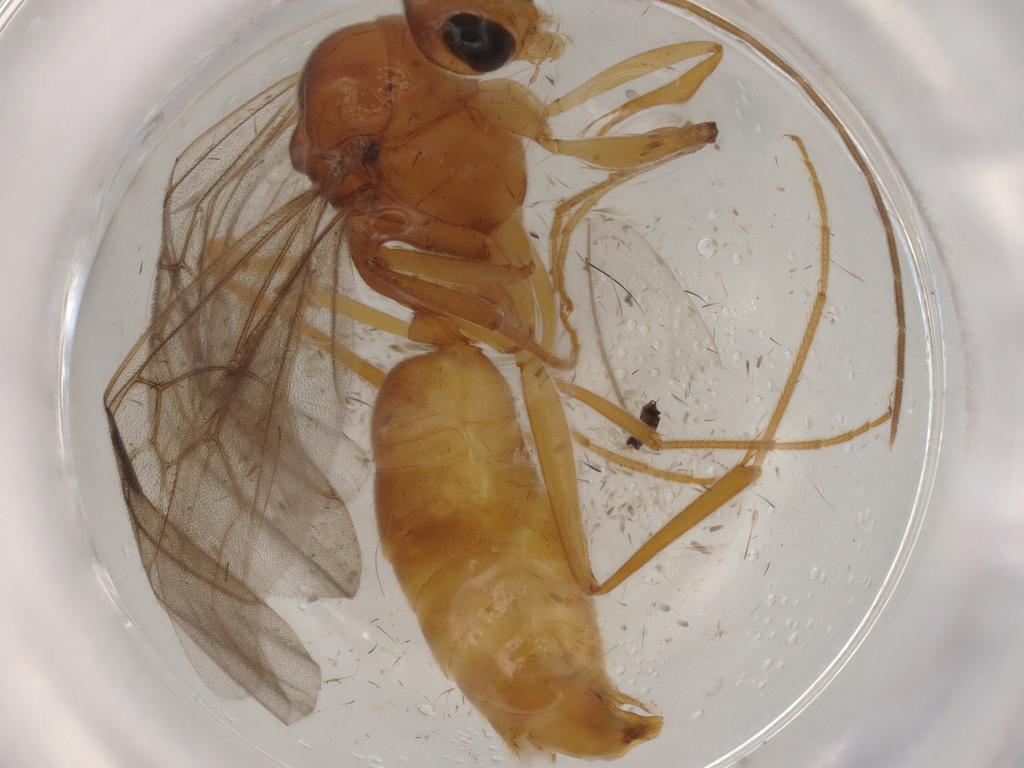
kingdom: Animalia
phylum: Arthropoda
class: Insecta
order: Hymenoptera
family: Formicidae
